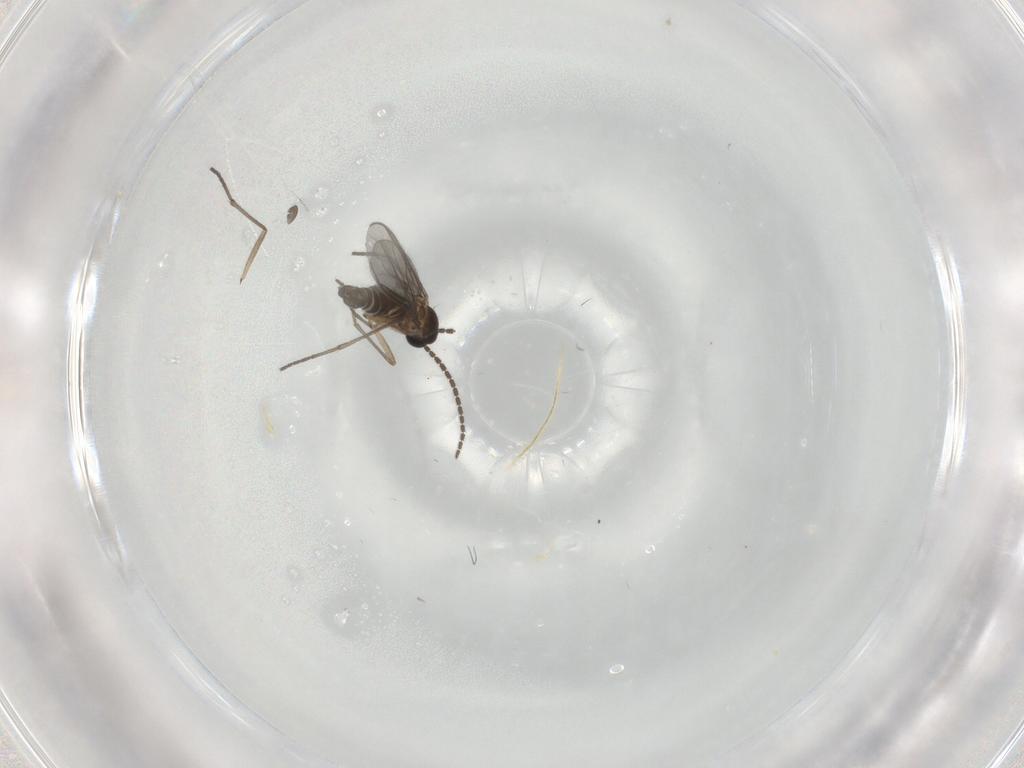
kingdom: Animalia
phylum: Arthropoda
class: Insecta
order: Diptera
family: Sciaridae
